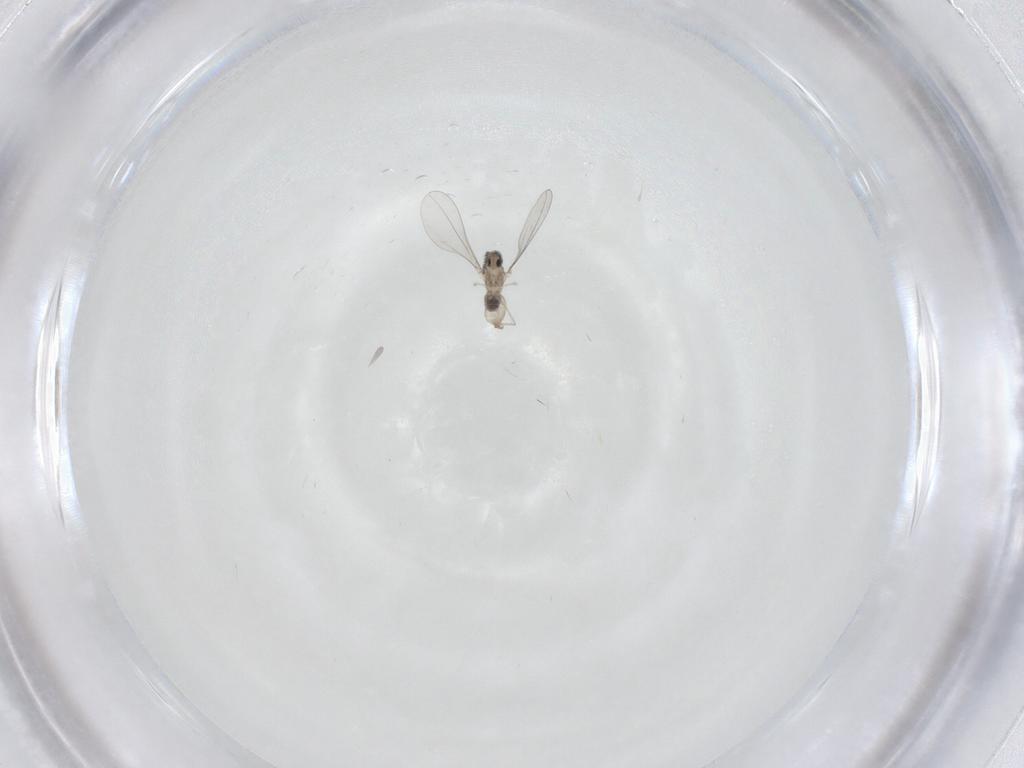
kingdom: Animalia
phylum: Arthropoda
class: Insecta
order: Diptera
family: Cecidomyiidae
